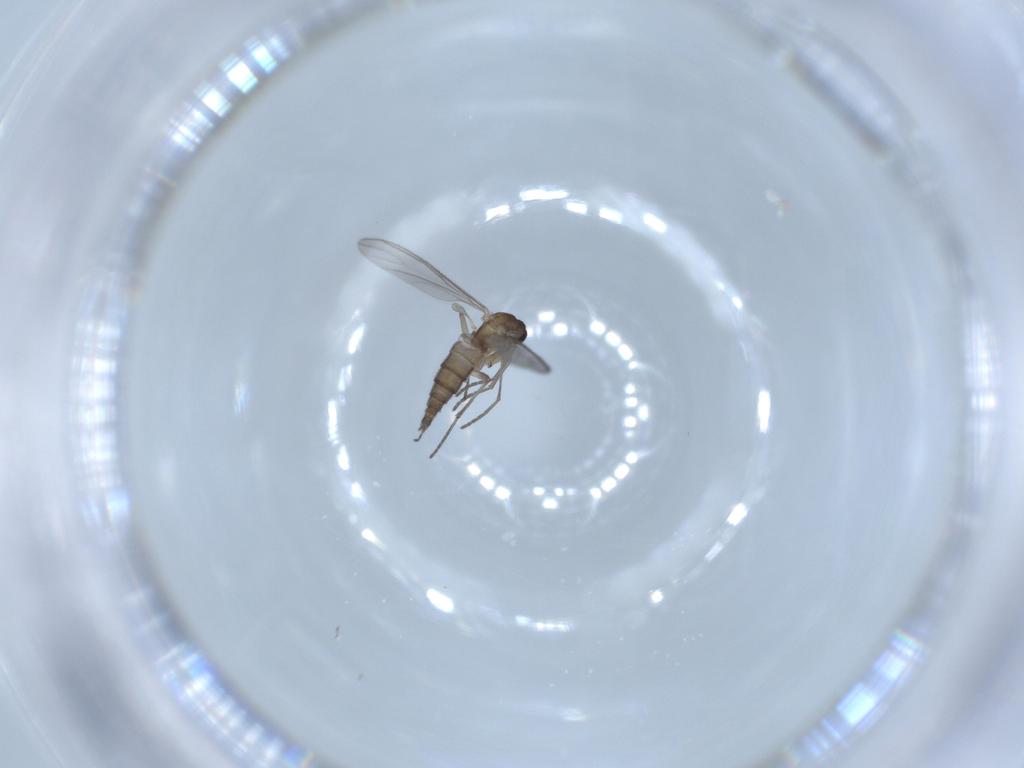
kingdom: Animalia
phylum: Arthropoda
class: Insecta
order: Diptera
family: Sciaridae
